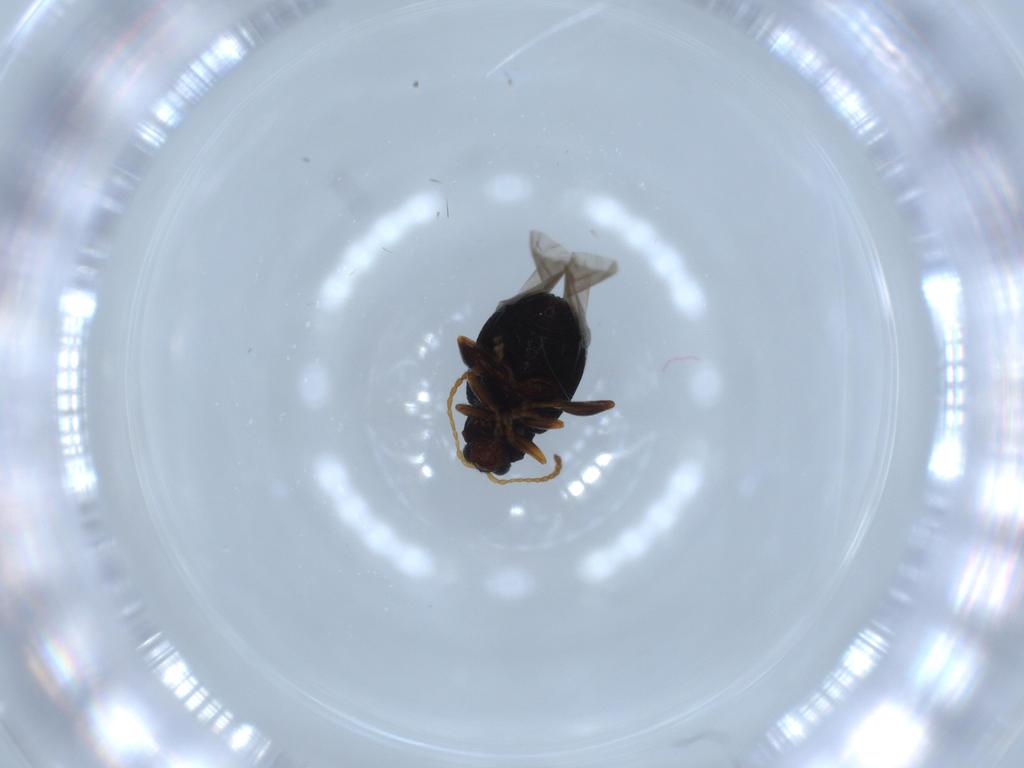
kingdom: Animalia
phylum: Arthropoda
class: Insecta
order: Coleoptera
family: Chrysomelidae
